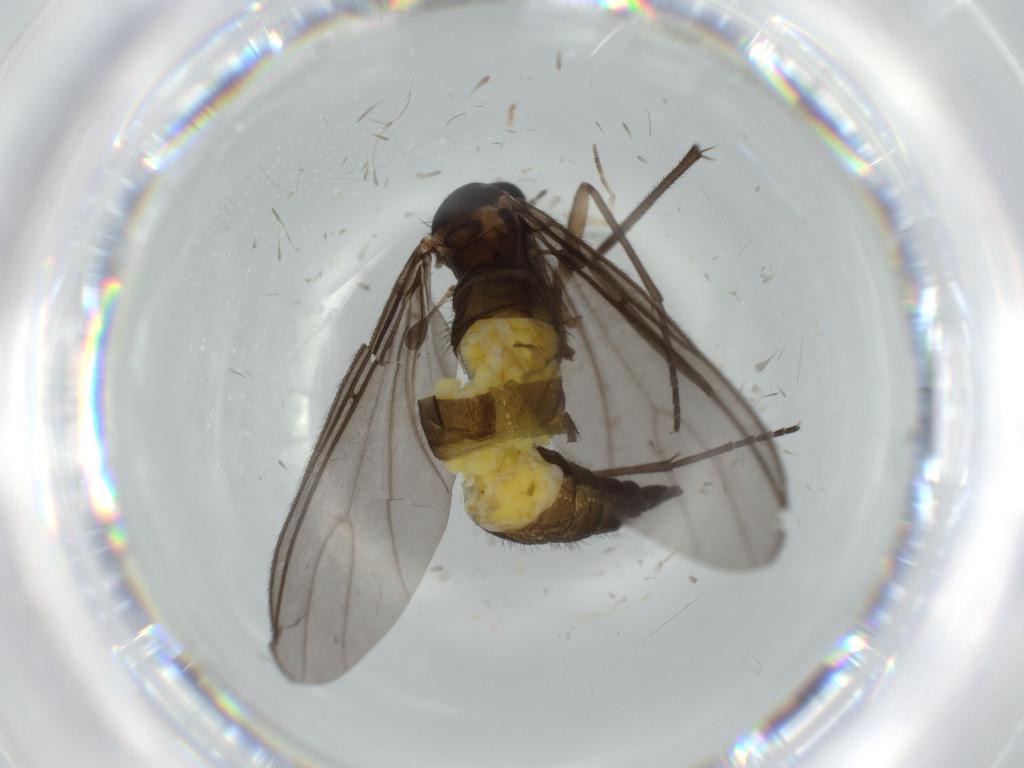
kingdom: Animalia
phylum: Arthropoda
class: Insecta
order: Diptera
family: Sciaridae
